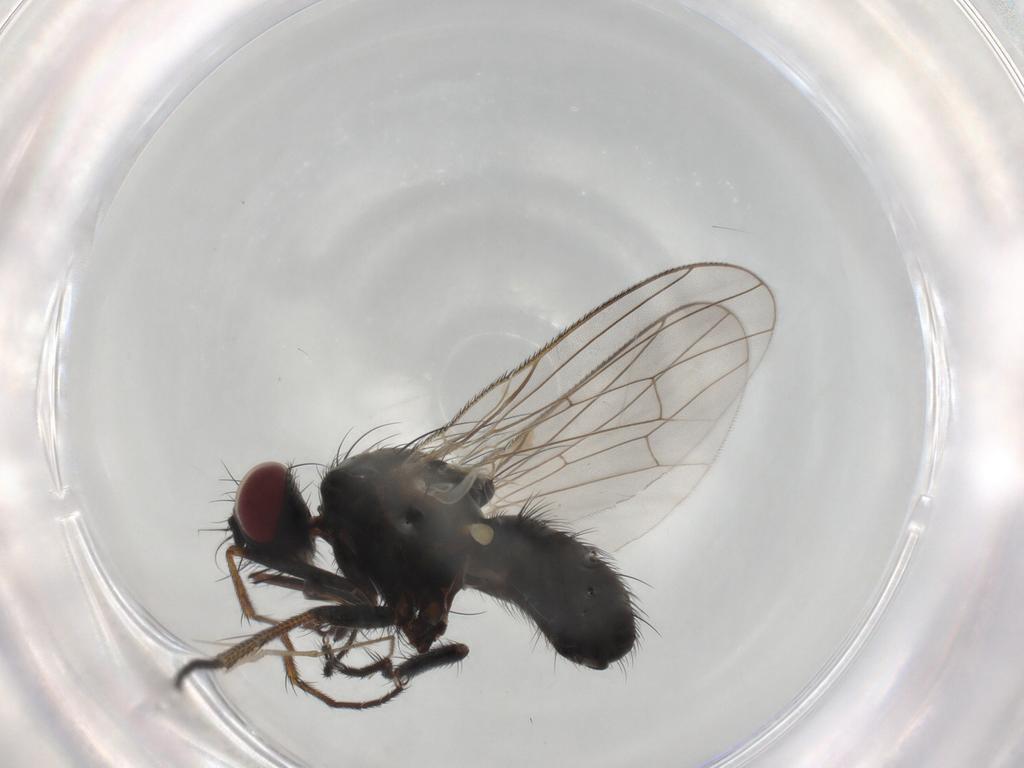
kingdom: Animalia
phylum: Arthropoda
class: Insecta
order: Diptera
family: Chironomidae
